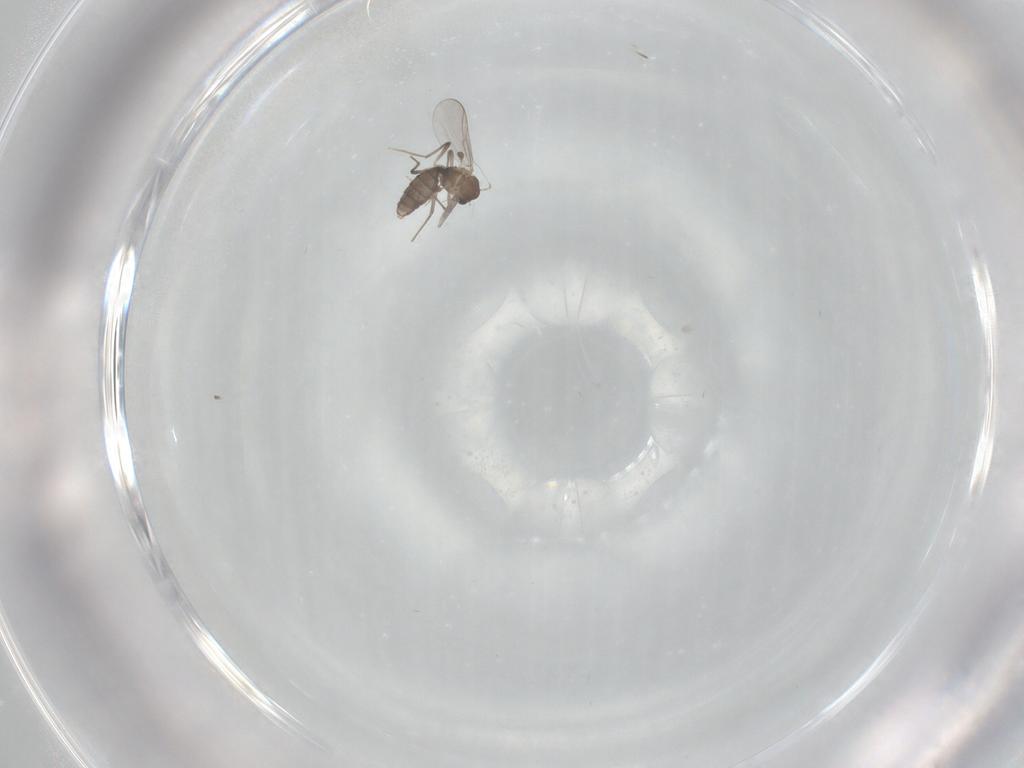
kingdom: Animalia
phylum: Arthropoda
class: Insecta
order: Diptera
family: Chironomidae
